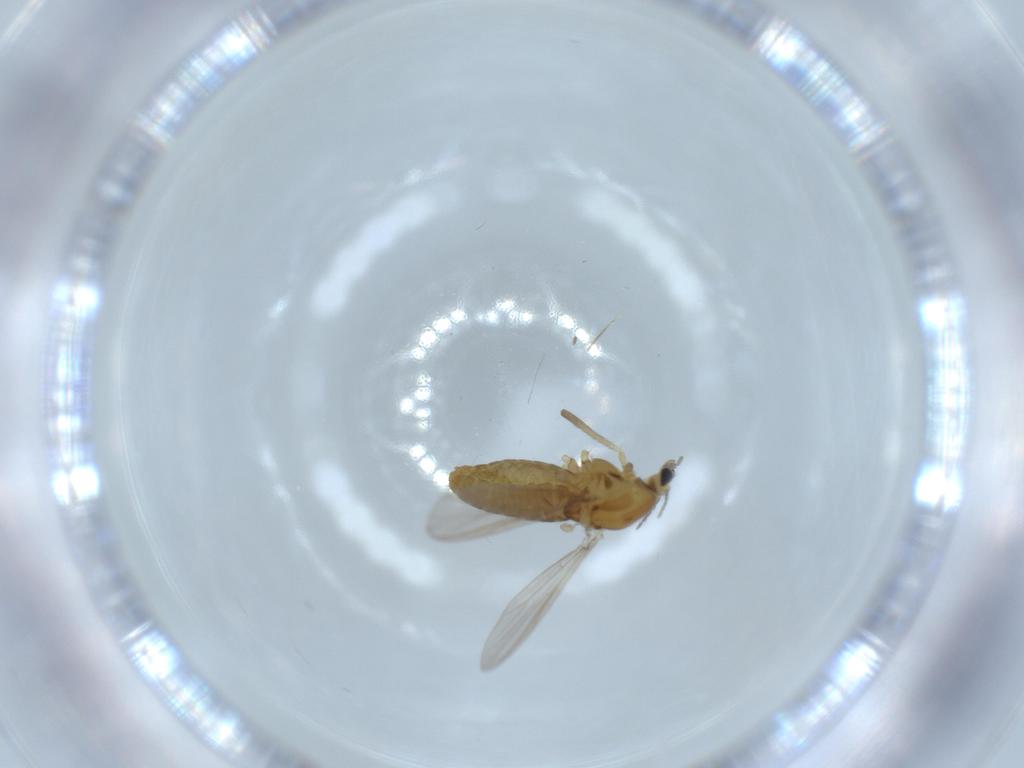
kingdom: Animalia
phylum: Arthropoda
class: Insecta
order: Diptera
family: Chironomidae
